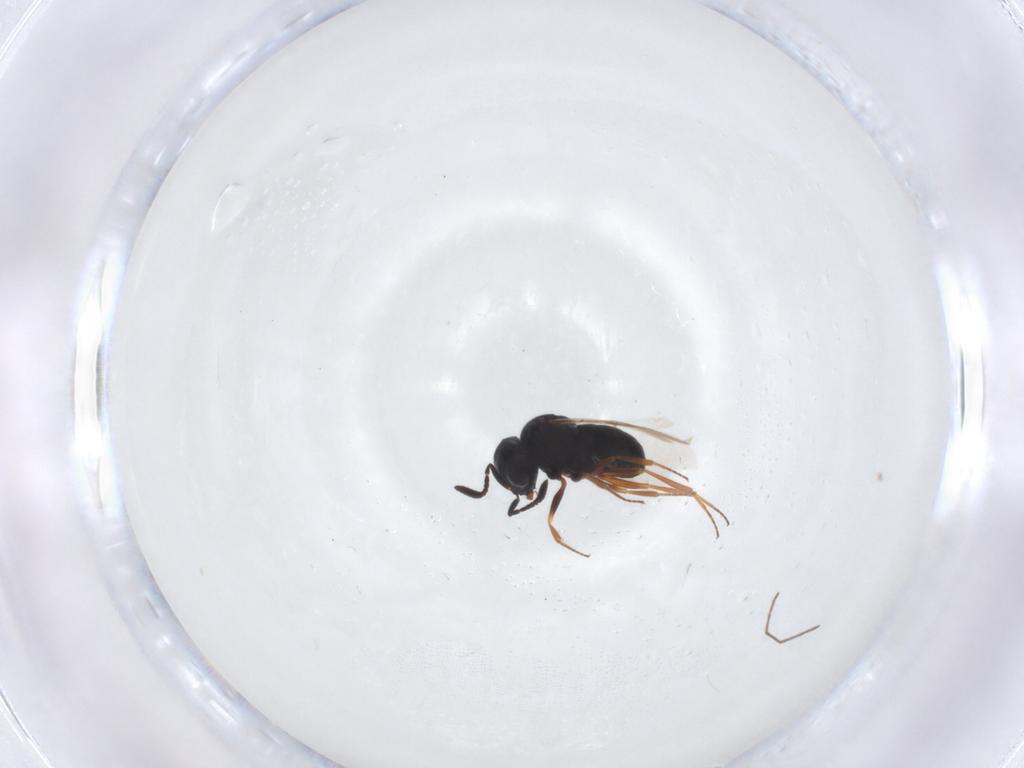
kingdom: Animalia
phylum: Arthropoda
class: Insecta
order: Hymenoptera
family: Scelionidae
